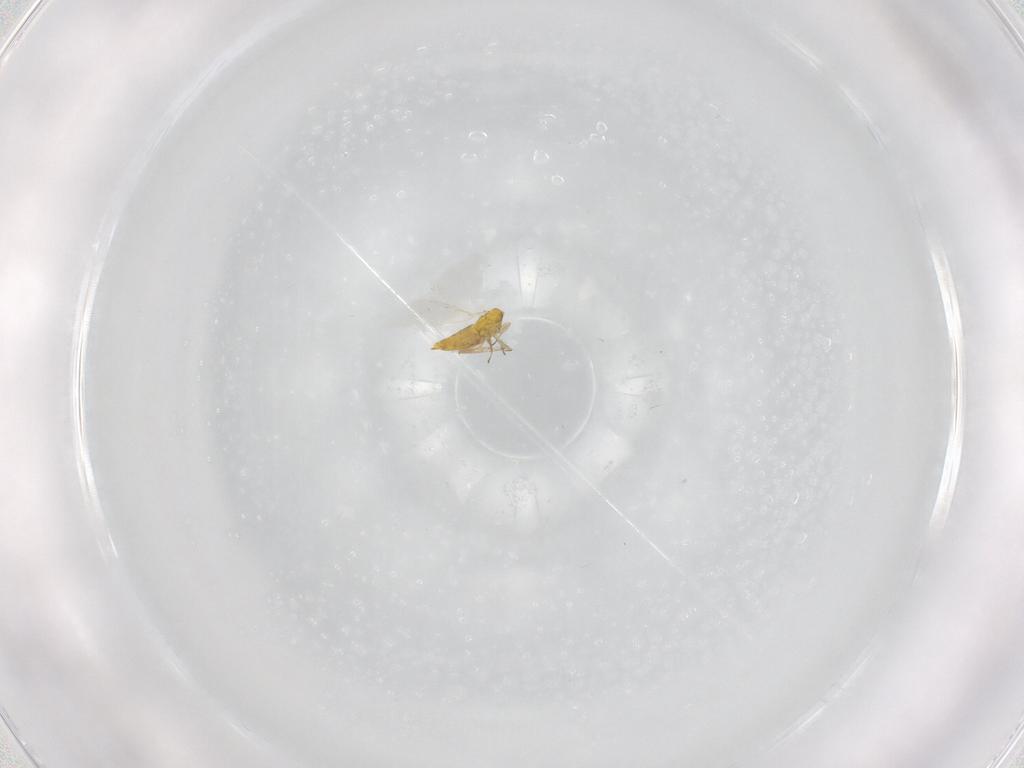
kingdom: Animalia
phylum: Arthropoda
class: Insecta
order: Hymenoptera
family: Aphelinidae
